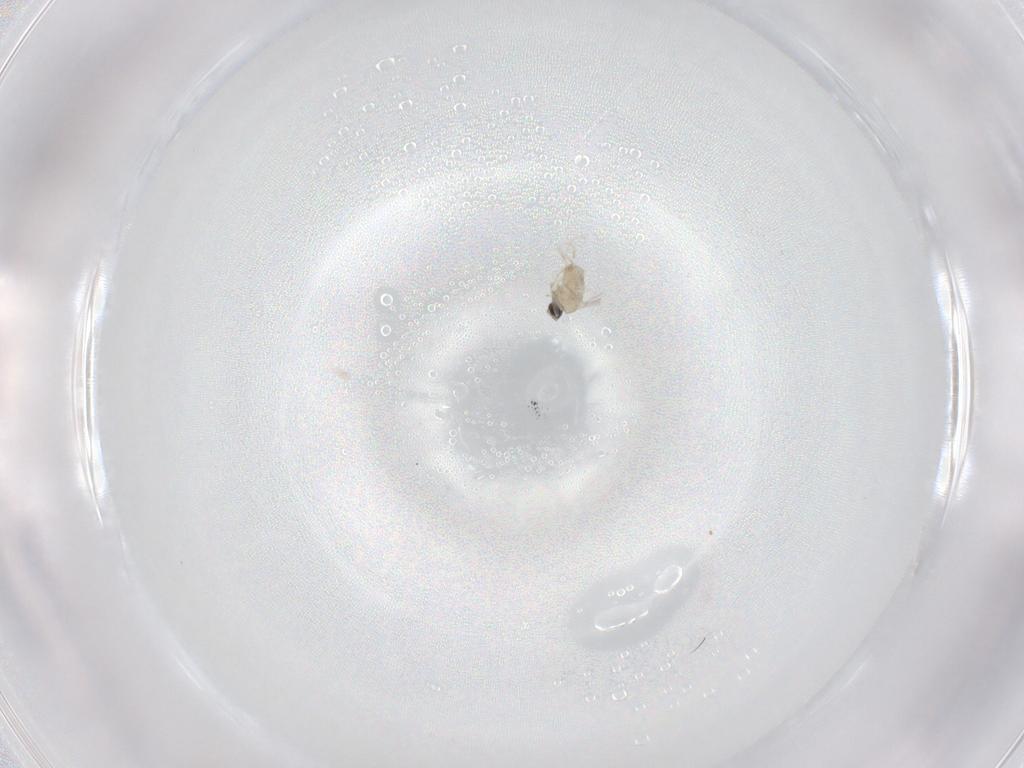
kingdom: Animalia
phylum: Arthropoda
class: Insecta
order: Diptera
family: Cecidomyiidae
